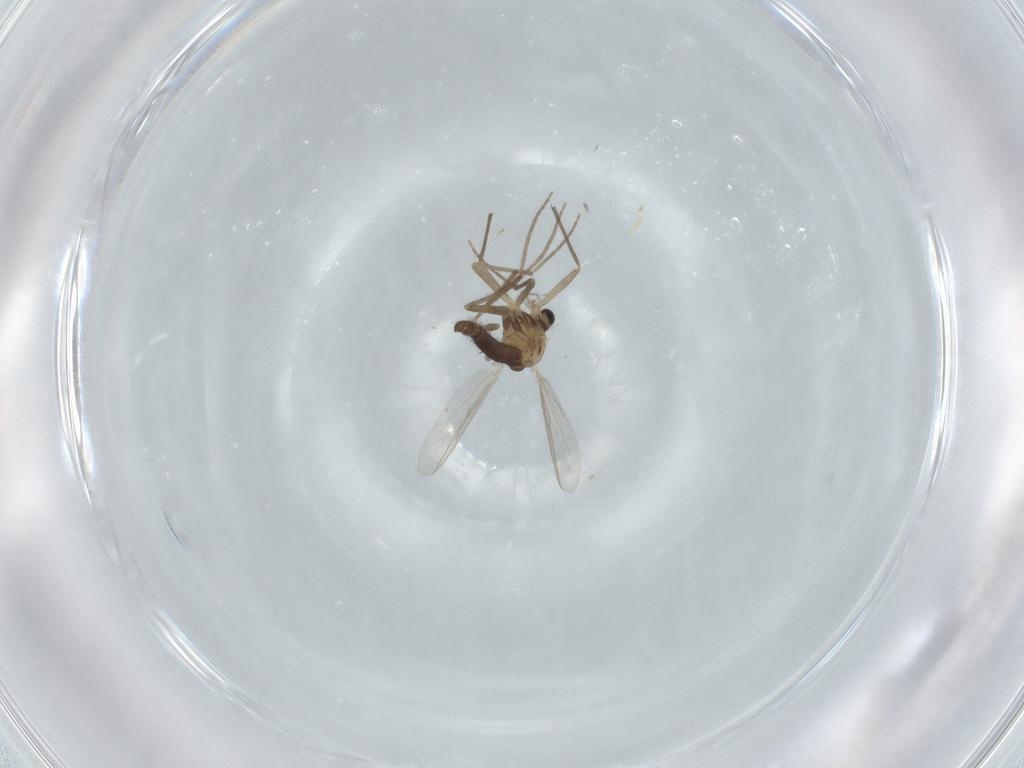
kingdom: Animalia
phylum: Arthropoda
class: Insecta
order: Diptera
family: Chironomidae
